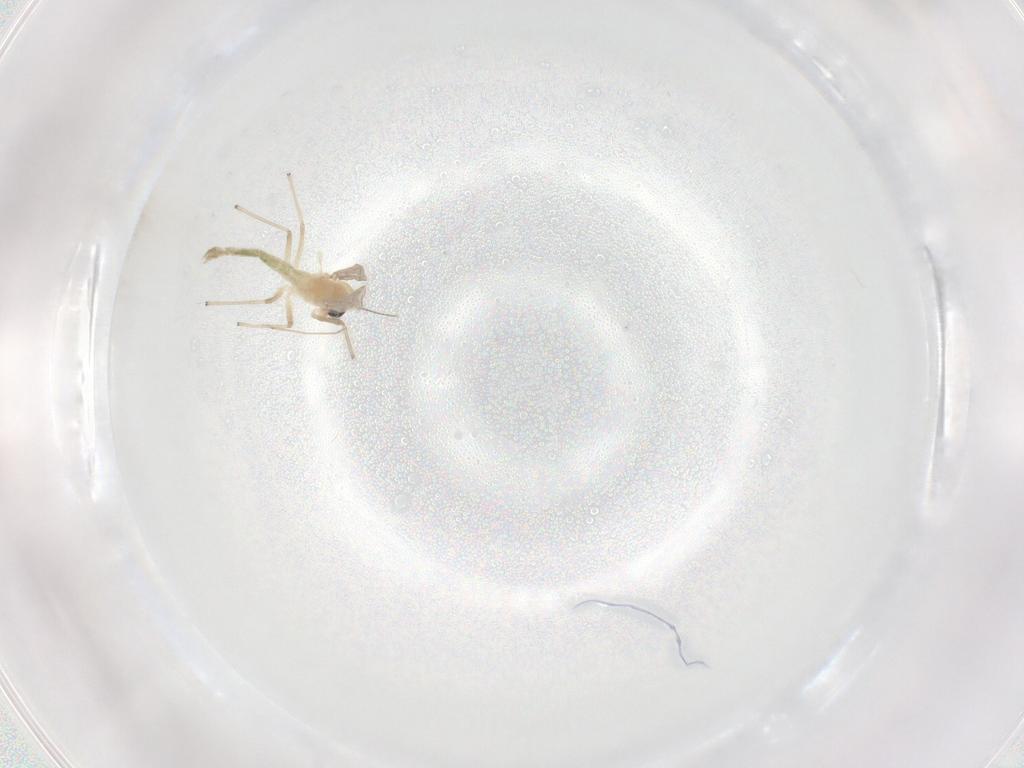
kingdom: Animalia
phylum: Arthropoda
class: Insecta
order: Diptera
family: Chironomidae
